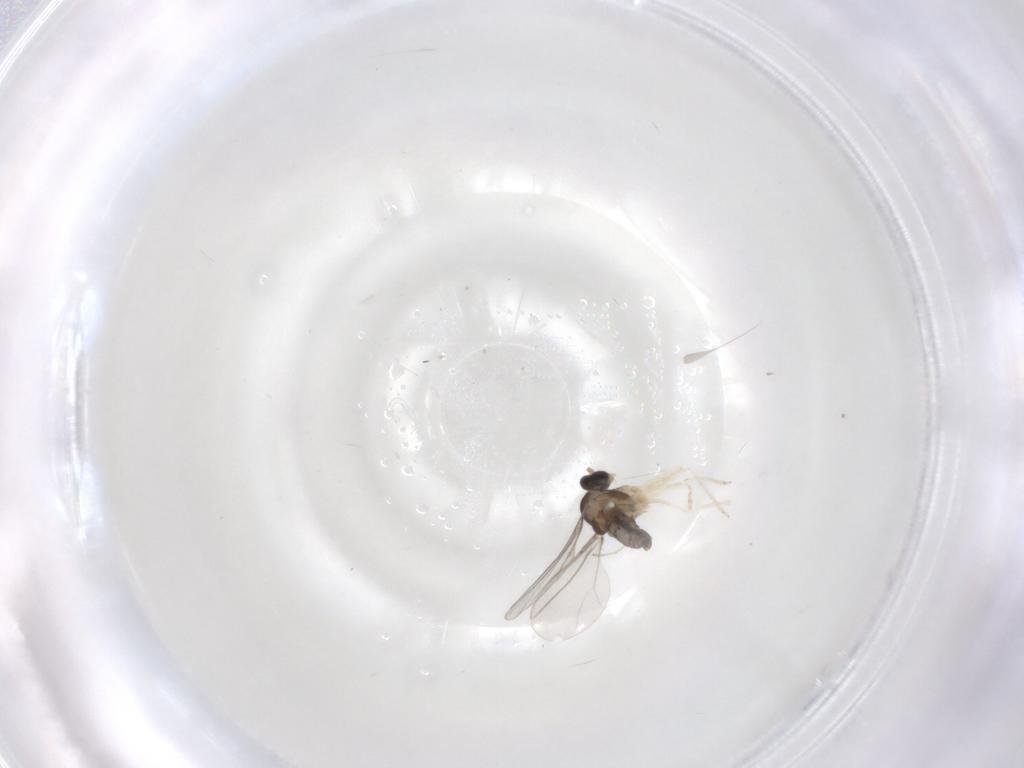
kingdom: Animalia
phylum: Arthropoda
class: Insecta
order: Diptera
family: Cecidomyiidae
